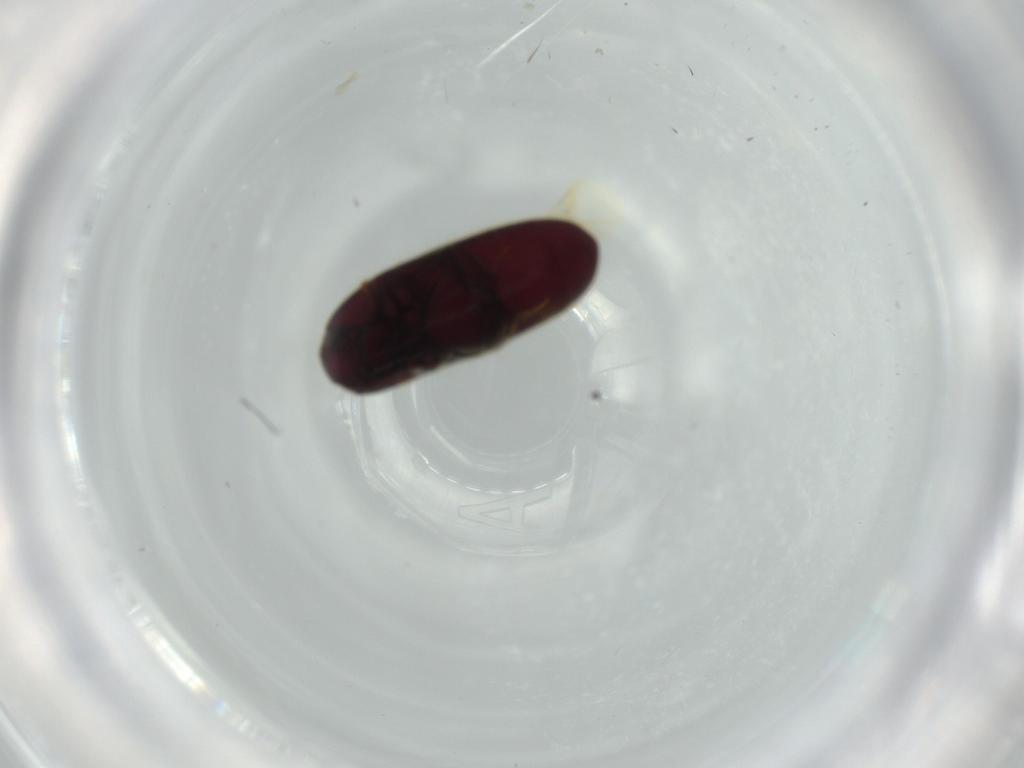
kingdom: Animalia
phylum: Arthropoda
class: Insecta
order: Coleoptera
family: Throscidae
